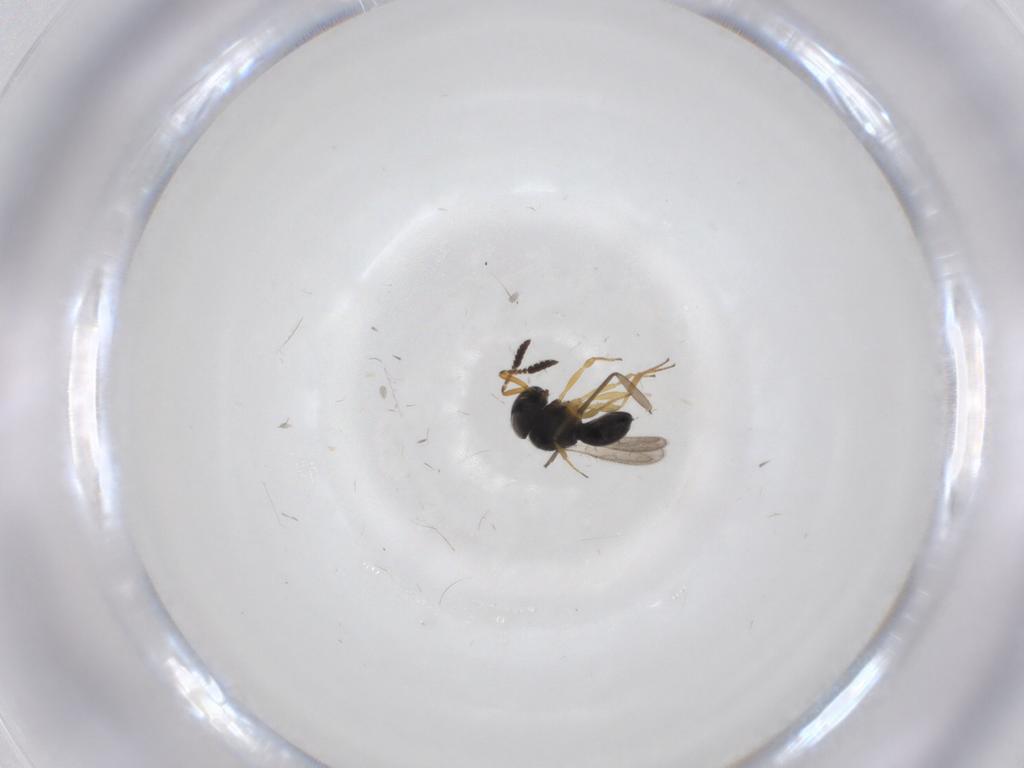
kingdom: Animalia
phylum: Arthropoda
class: Insecta
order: Hymenoptera
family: Scelionidae
